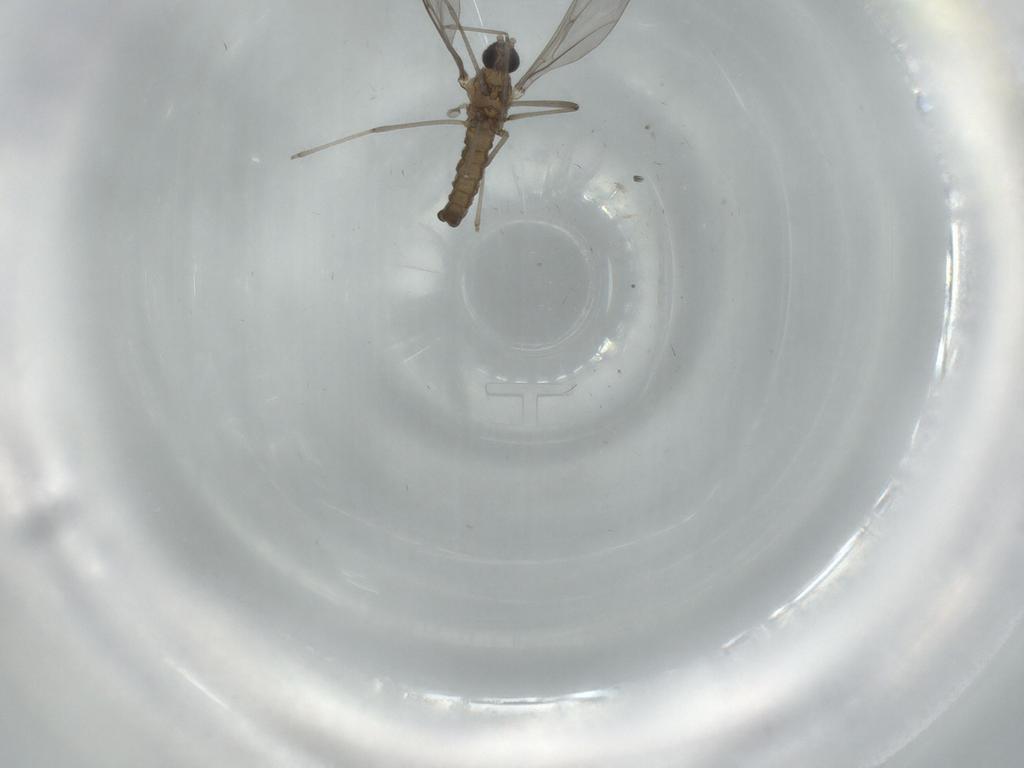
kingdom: Animalia
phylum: Arthropoda
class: Insecta
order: Diptera
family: Cecidomyiidae
